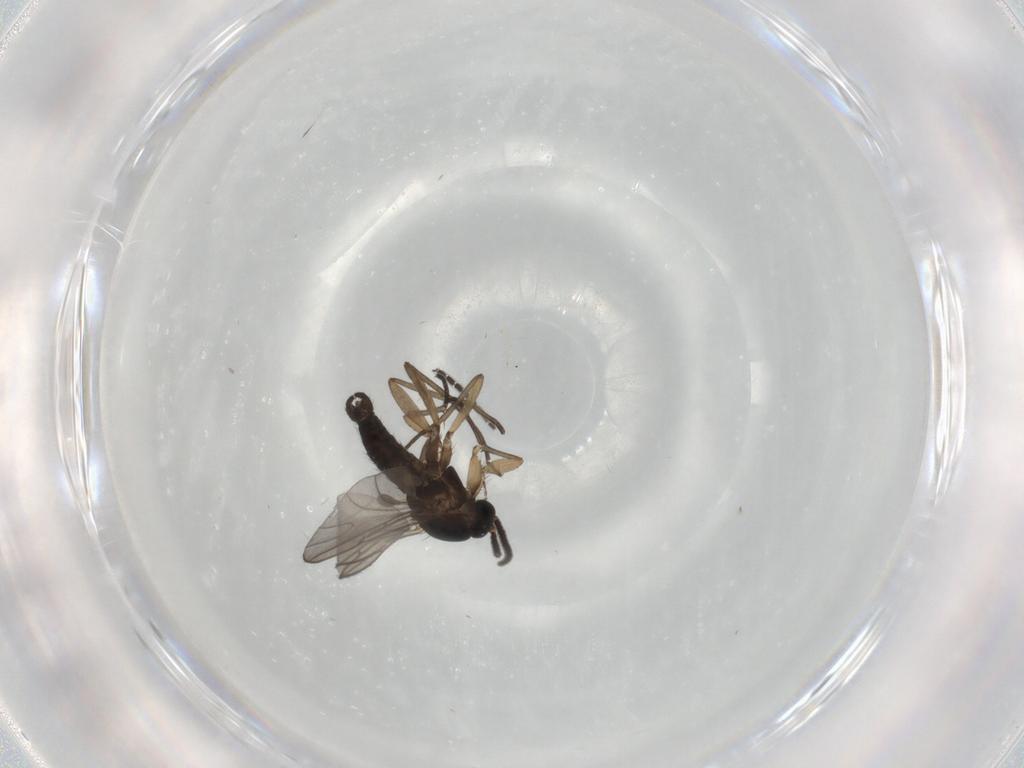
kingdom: Animalia
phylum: Arthropoda
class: Insecta
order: Diptera
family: Sciaridae
